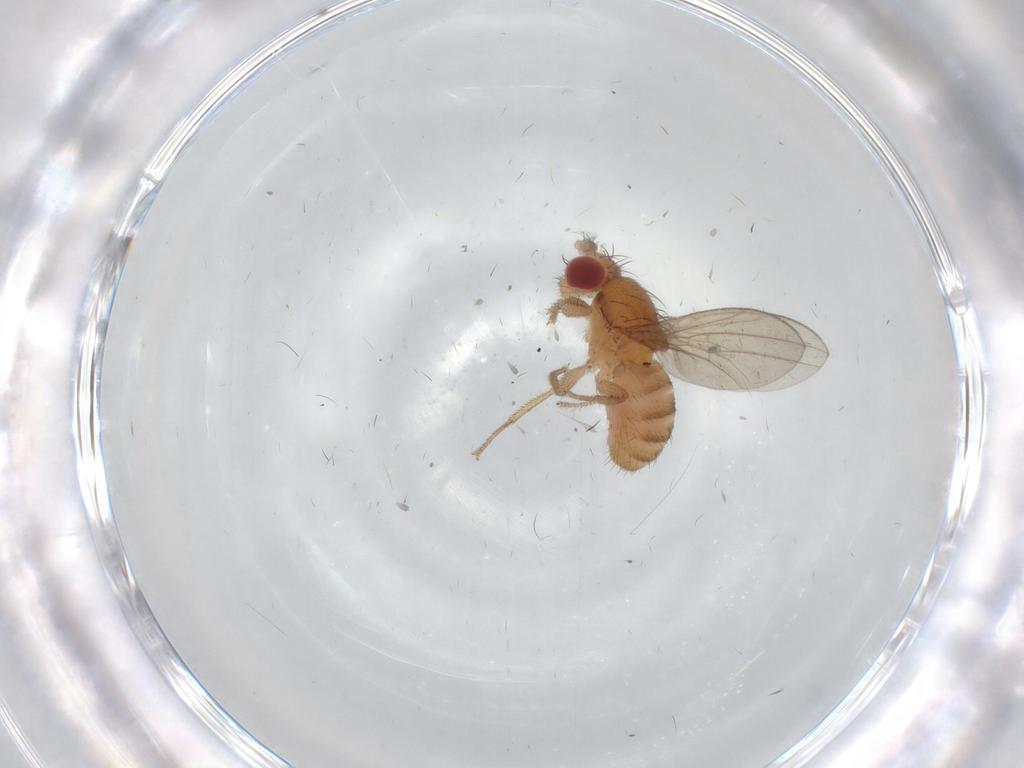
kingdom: Animalia
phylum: Arthropoda
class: Insecta
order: Diptera
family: Drosophilidae
